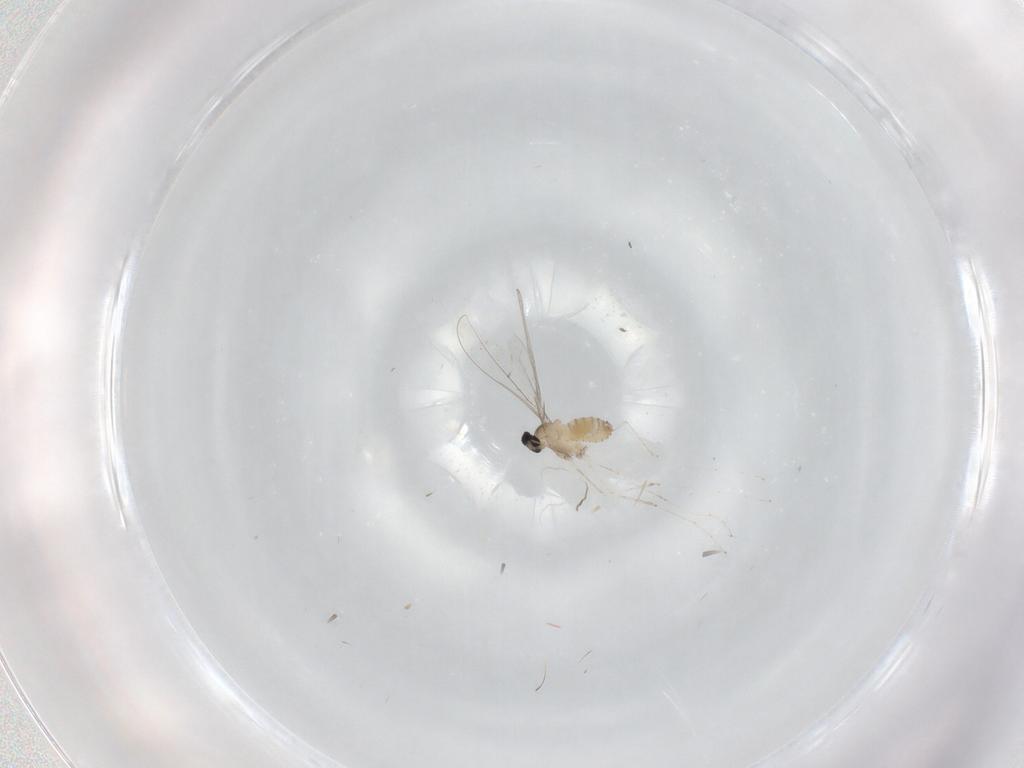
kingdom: Animalia
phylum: Arthropoda
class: Insecta
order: Diptera
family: Cecidomyiidae
